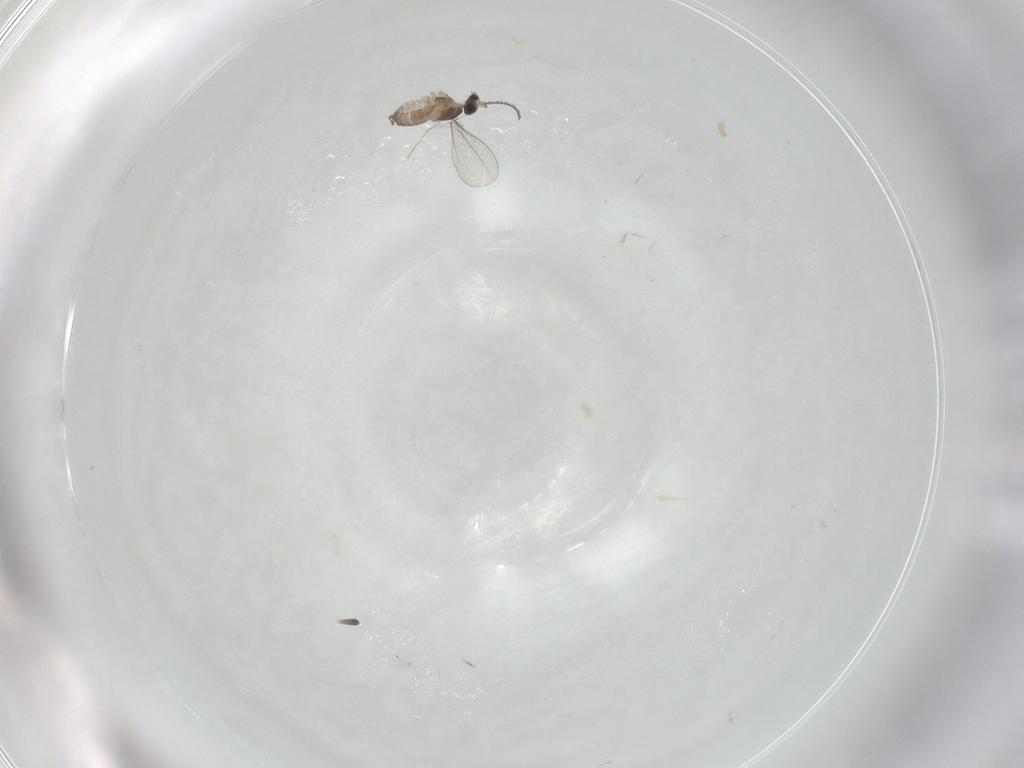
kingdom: Animalia
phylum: Arthropoda
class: Insecta
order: Diptera
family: Cecidomyiidae
